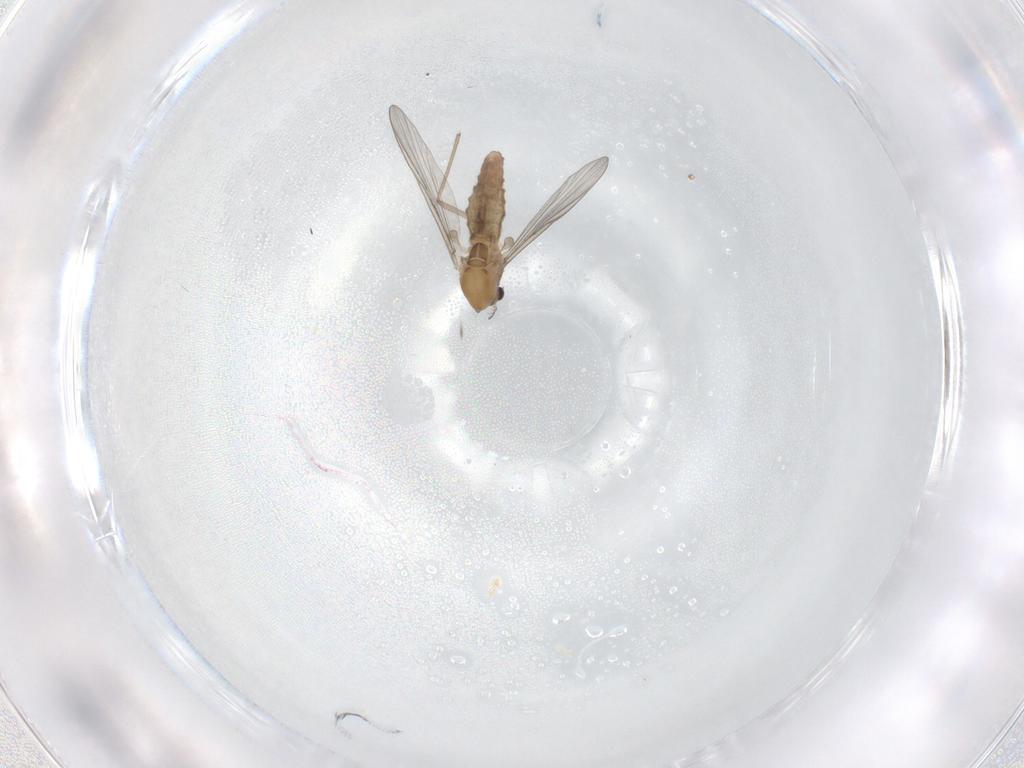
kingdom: Animalia
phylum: Arthropoda
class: Insecta
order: Diptera
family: Chironomidae
